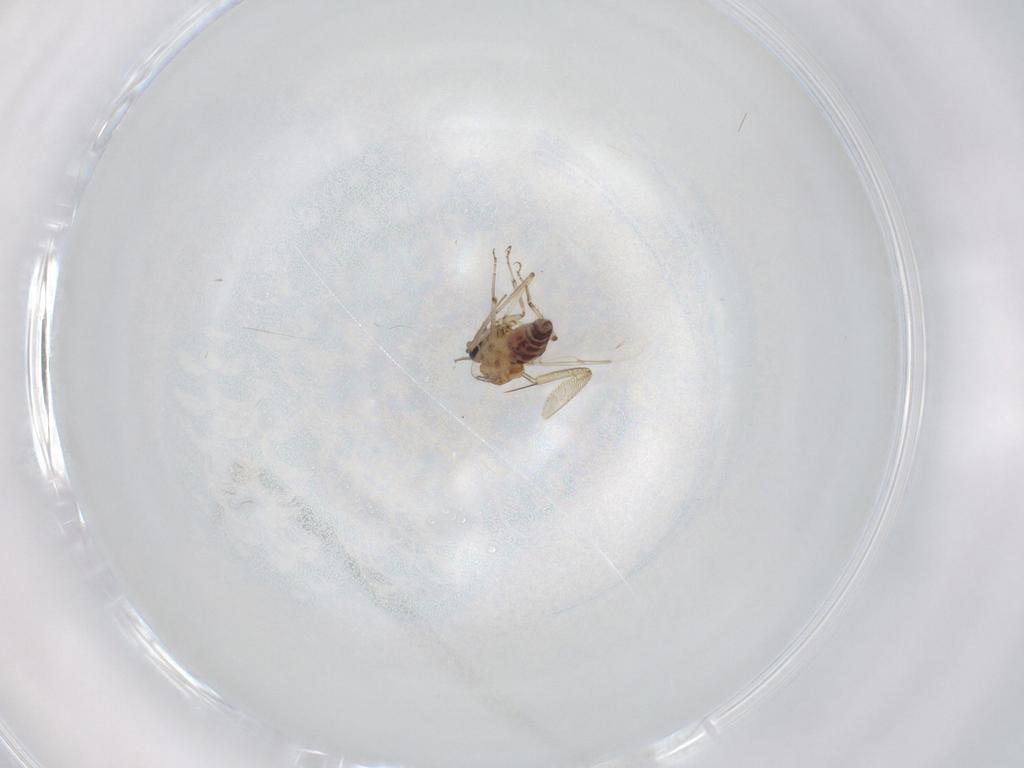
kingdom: Animalia
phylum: Arthropoda
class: Insecta
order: Diptera
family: Ceratopogonidae
